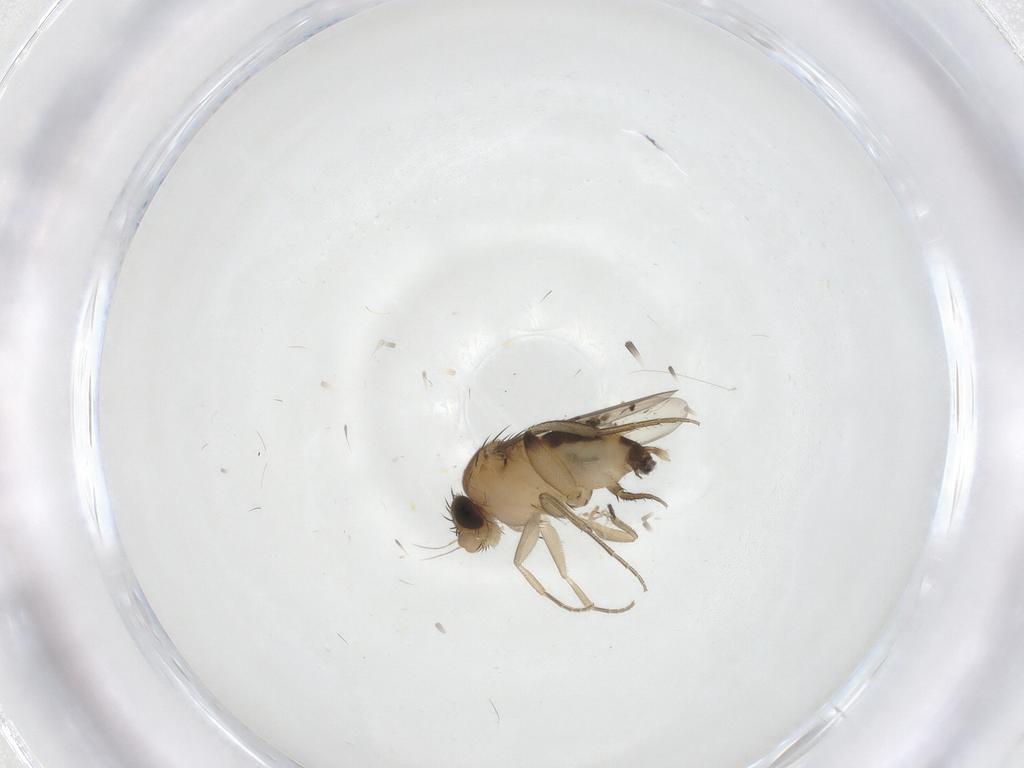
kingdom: Animalia
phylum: Arthropoda
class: Insecta
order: Diptera
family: Phoridae
